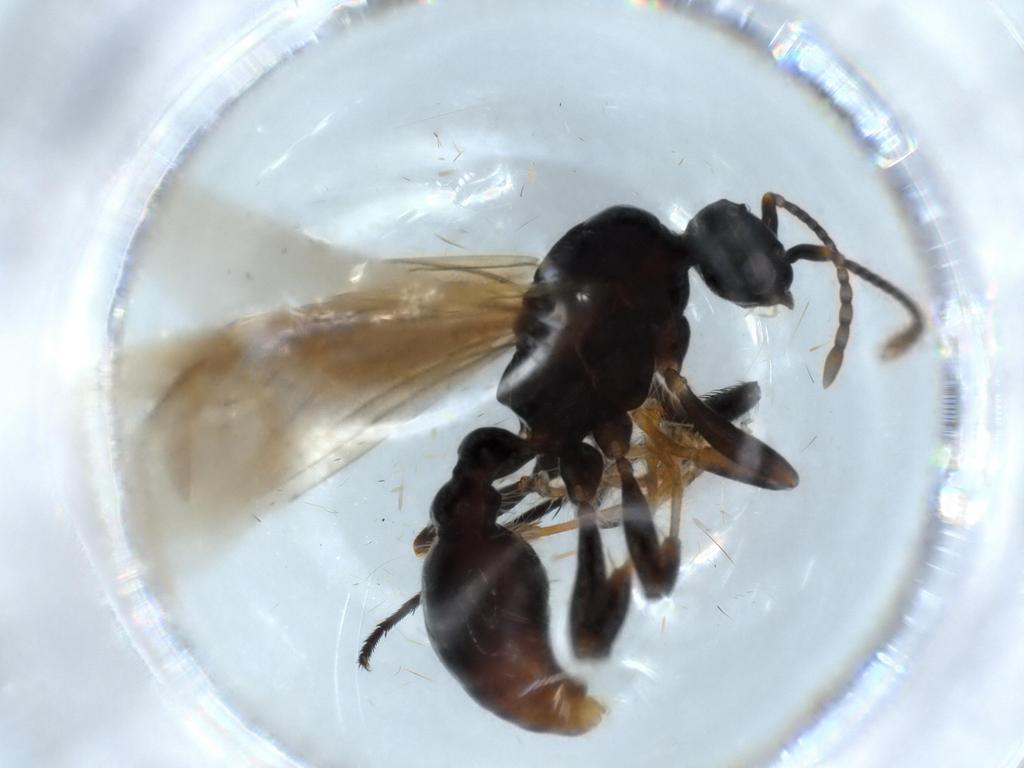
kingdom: Animalia
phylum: Arthropoda
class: Insecta
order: Hymenoptera
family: Formicidae
